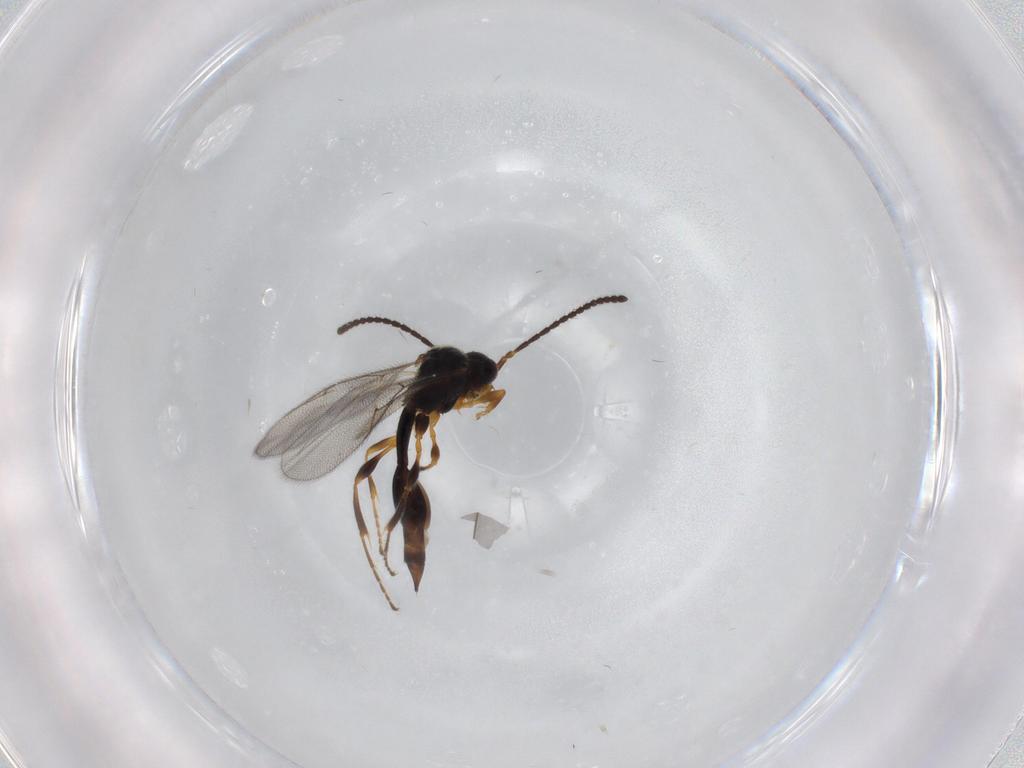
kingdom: Animalia
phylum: Arthropoda
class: Insecta
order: Hymenoptera
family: Diapriidae
